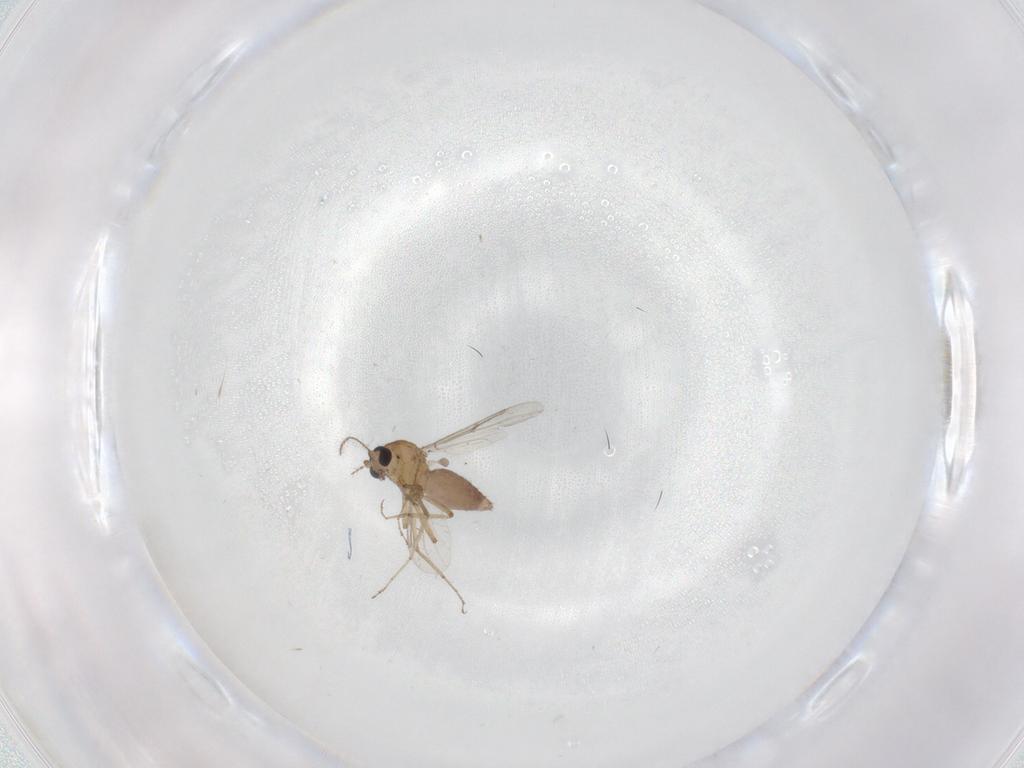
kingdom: Animalia
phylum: Arthropoda
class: Insecta
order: Diptera
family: Ceratopogonidae
